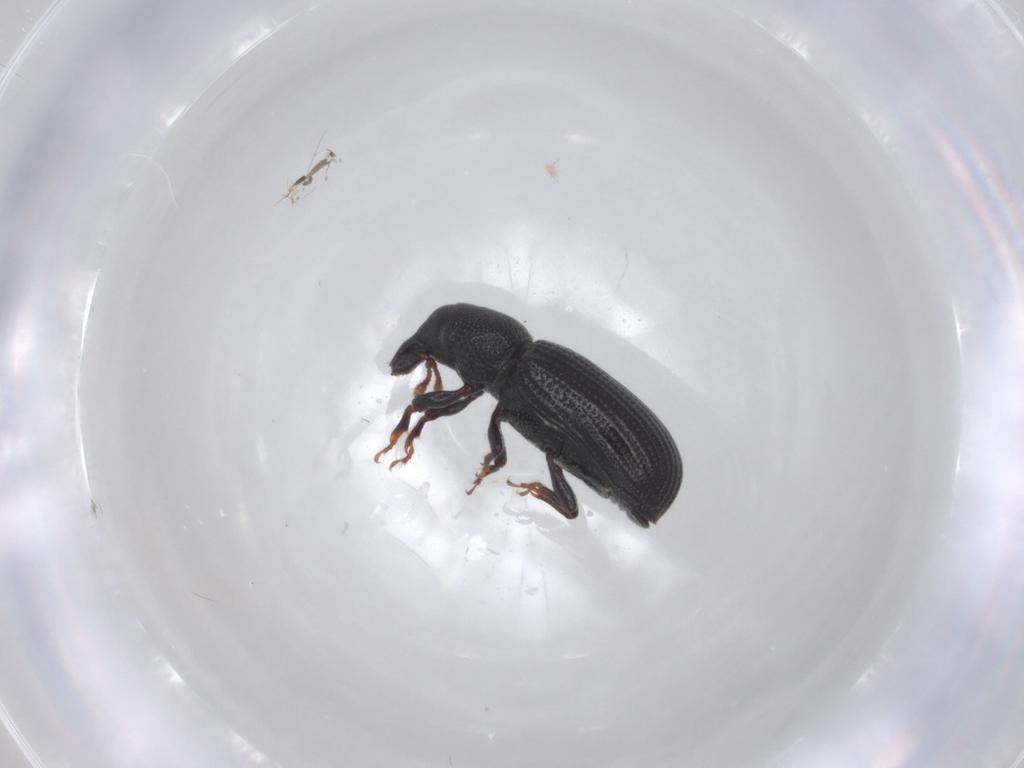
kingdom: Animalia
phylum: Arthropoda
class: Insecta
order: Coleoptera
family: Curculionidae
